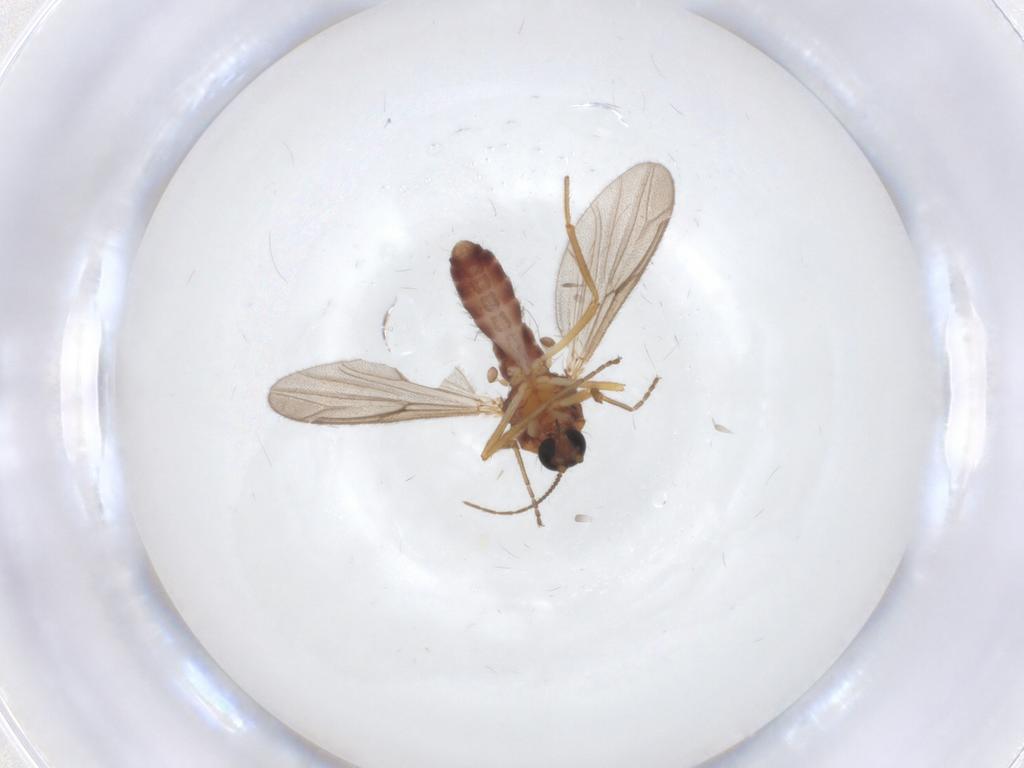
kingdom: Animalia
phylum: Arthropoda
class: Insecta
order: Diptera
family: Ceratopogonidae
